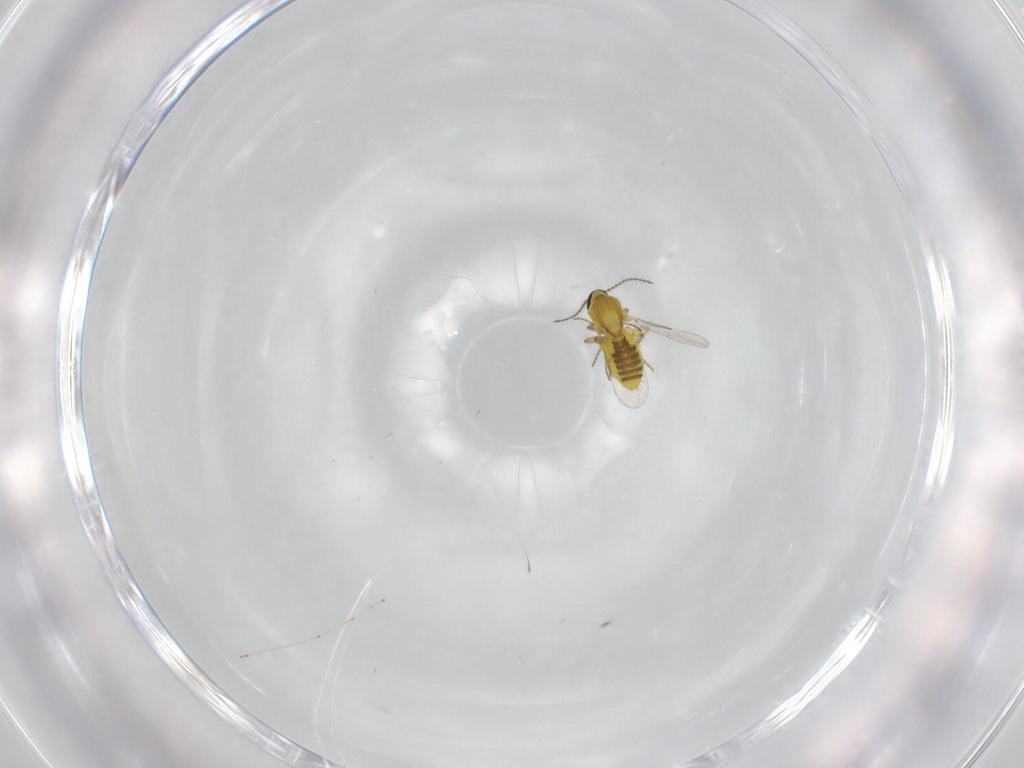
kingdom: Animalia
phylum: Arthropoda
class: Insecta
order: Diptera
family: Ceratopogonidae
